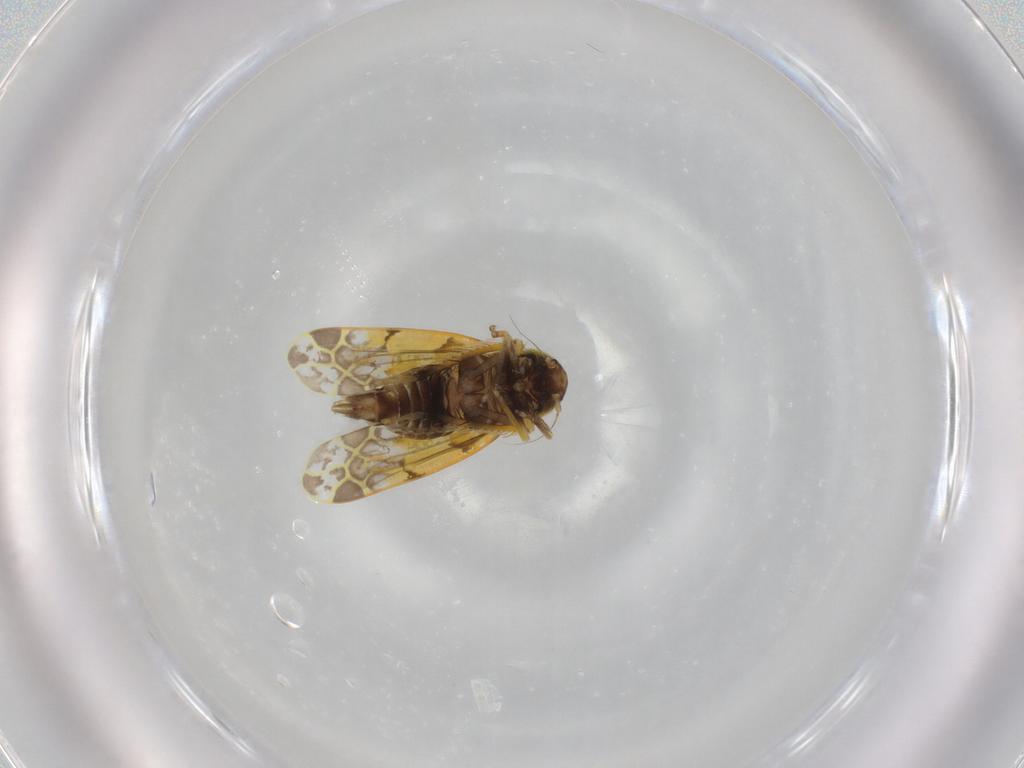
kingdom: Animalia
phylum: Arthropoda
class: Insecta
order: Hemiptera
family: Cicadellidae
